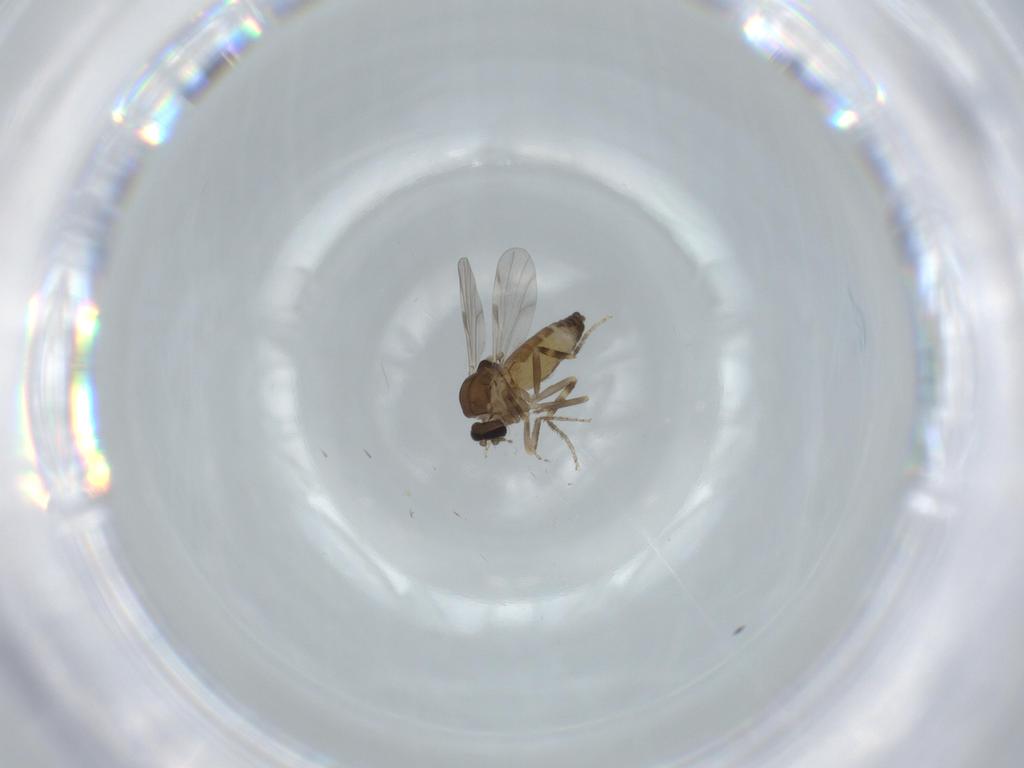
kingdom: Animalia
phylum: Arthropoda
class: Insecta
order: Diptera
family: Ceratopogonidae
